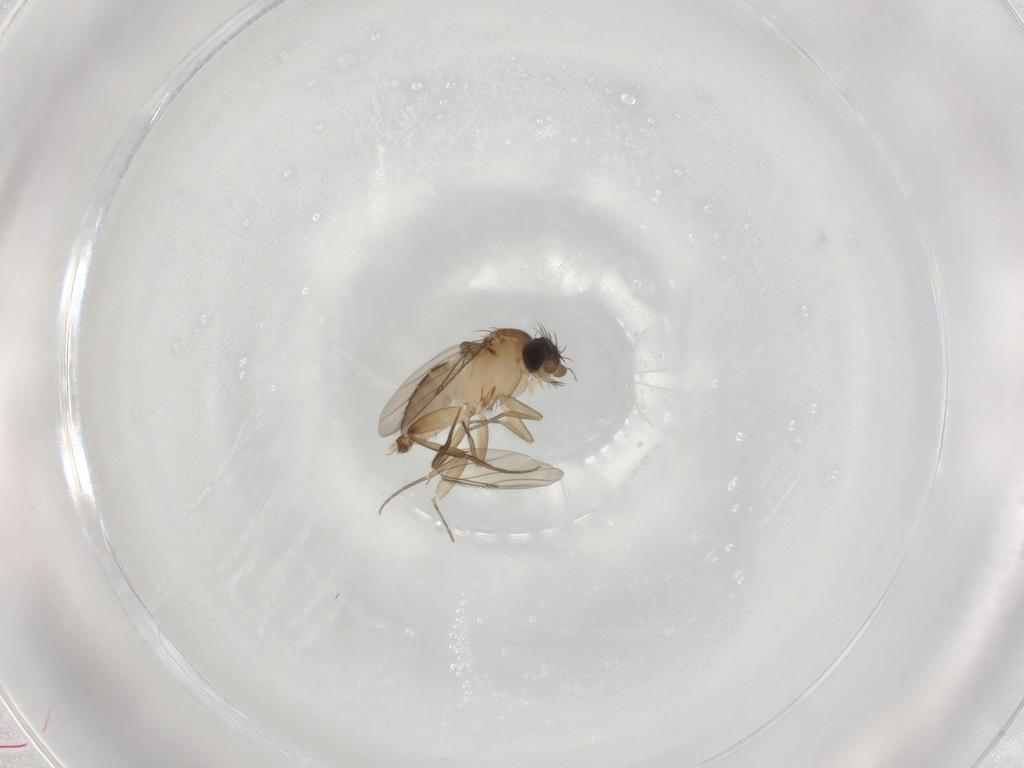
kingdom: Animalia
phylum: Arthropoda
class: Insecta
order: Diptera
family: Phoridae
